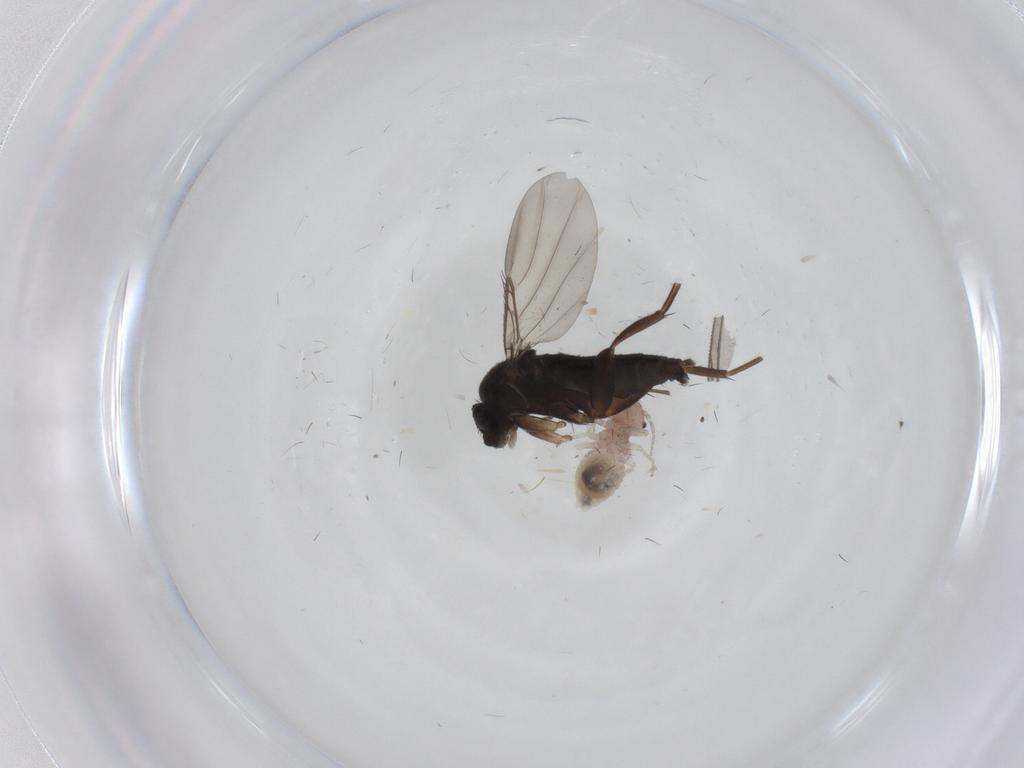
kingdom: Animalia
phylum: Arthropoda
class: Insecta
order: Diptera
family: Phoridae
